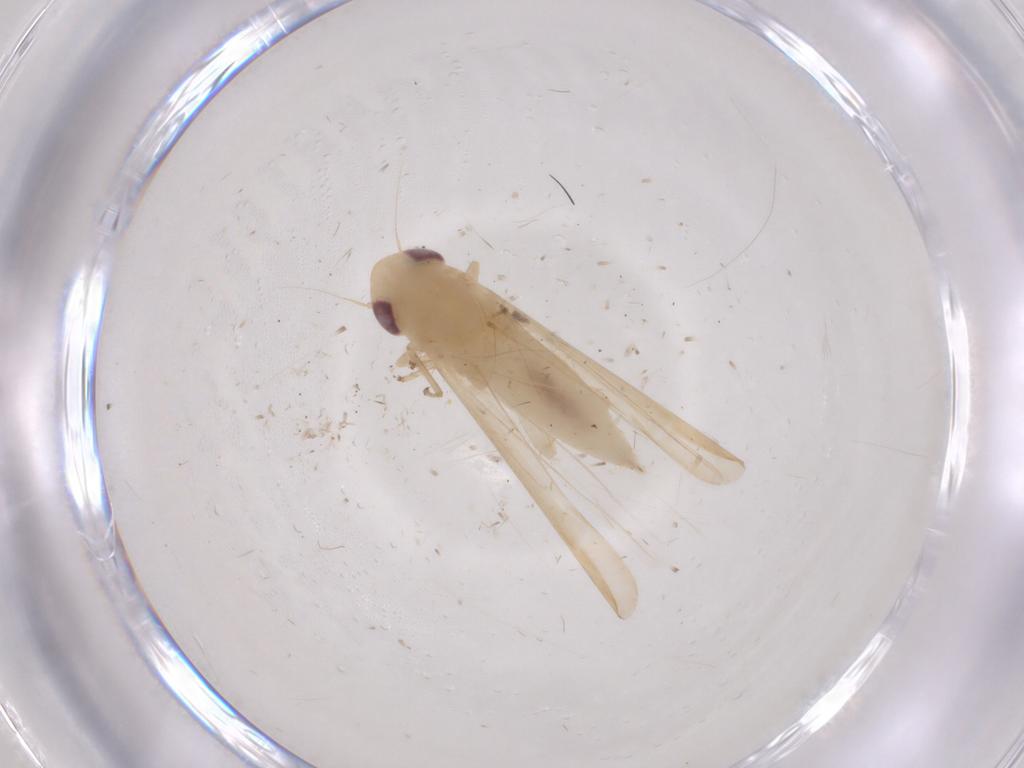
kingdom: Animalia
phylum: Arthropoda
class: Insecta
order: Hemiptera
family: Cicadellidae
